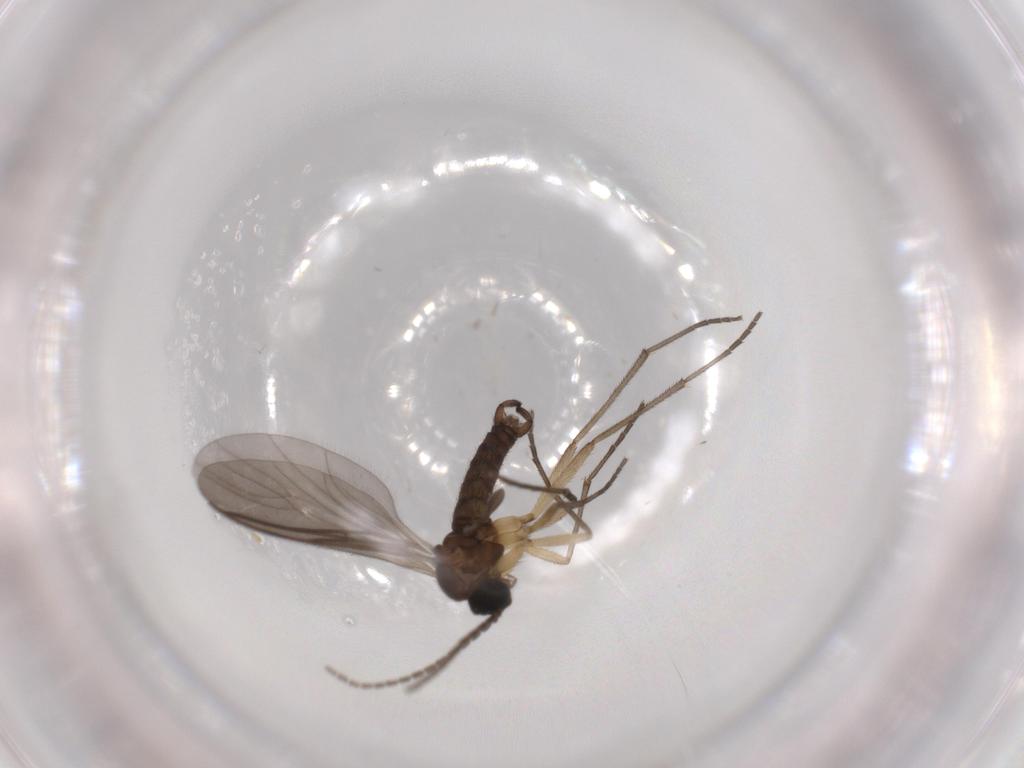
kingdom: Animalia
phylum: Arthropoda
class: Insecta
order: Diptera
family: Sciaridae
